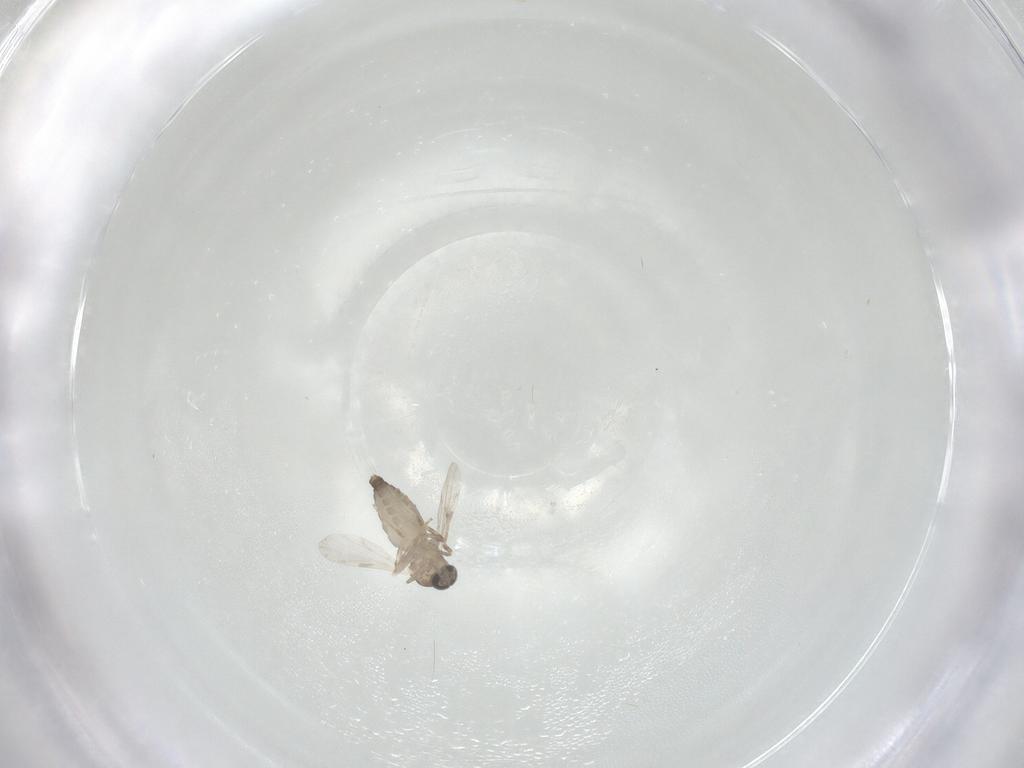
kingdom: Animalia
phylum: Arthropoda
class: Insecta
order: Diptera
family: Ceratopogonidae
